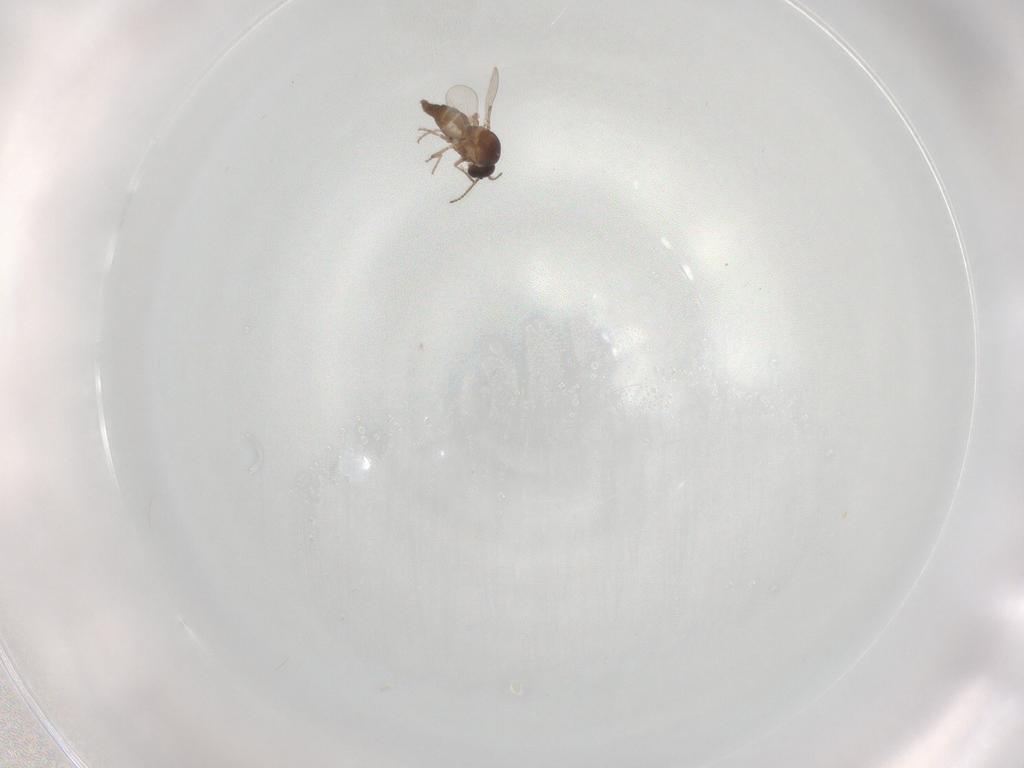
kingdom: Animalia
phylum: Arthropoda
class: Insecta
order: Diptera
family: Ceratopogonidae
